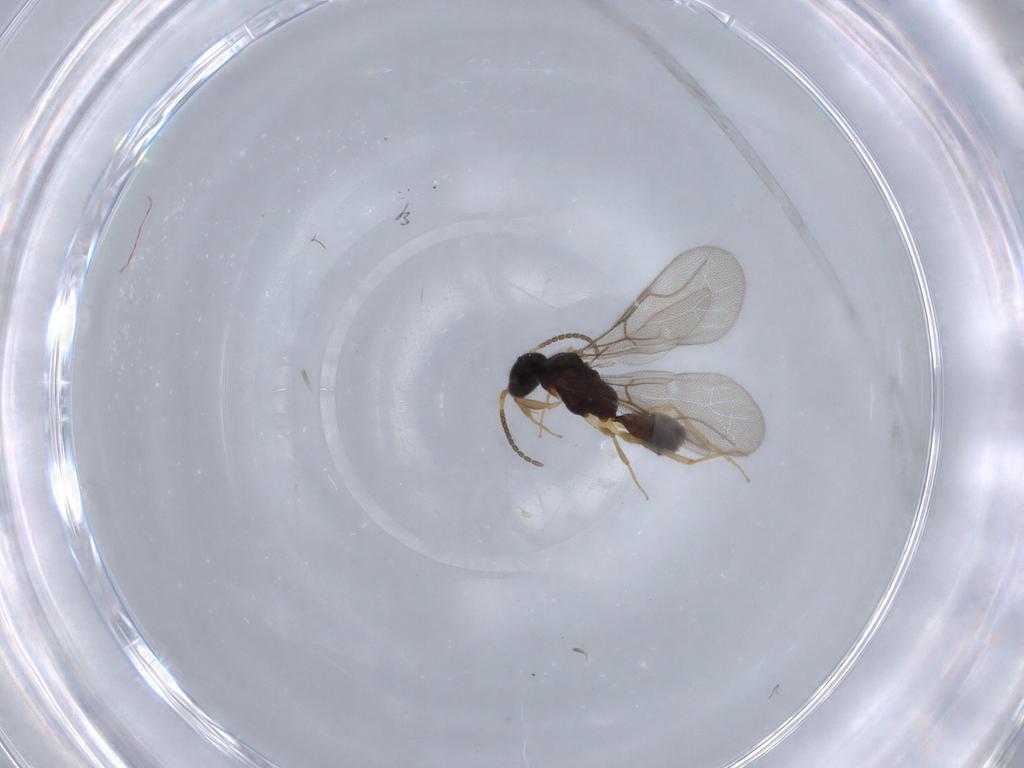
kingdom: Animalia
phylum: Arthropoda
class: Insecta
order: Hymenoptera
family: Bethylidae
